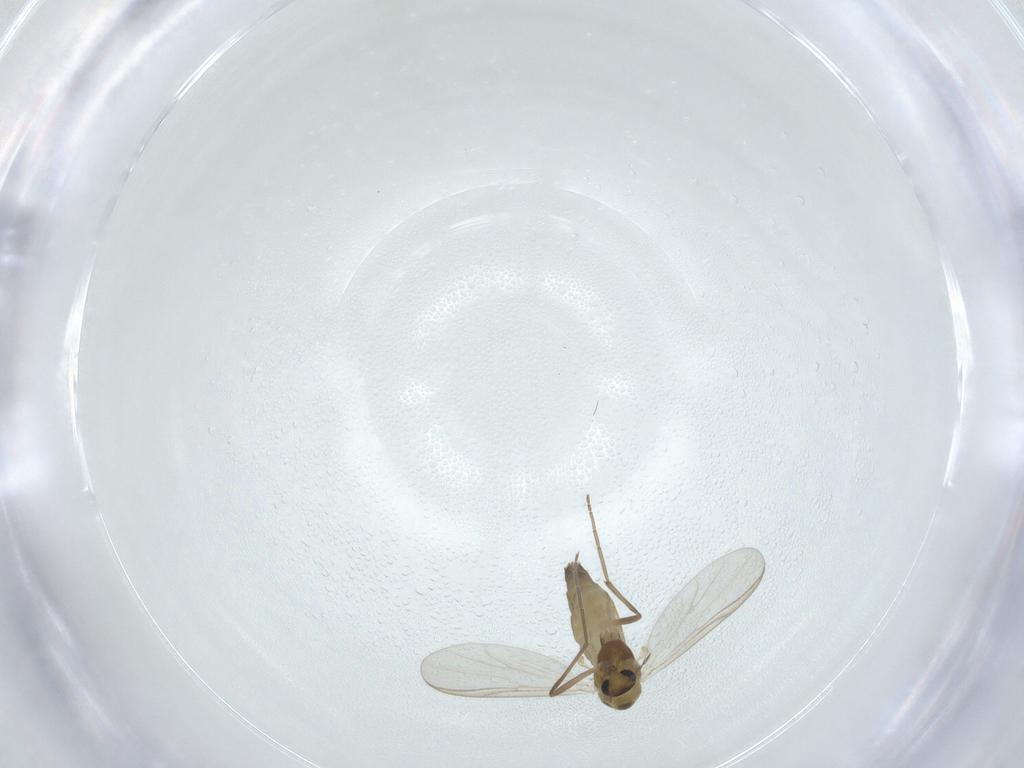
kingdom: Animalia
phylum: Arthropoda
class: Insecta
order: Diptera
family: Chironomidae
